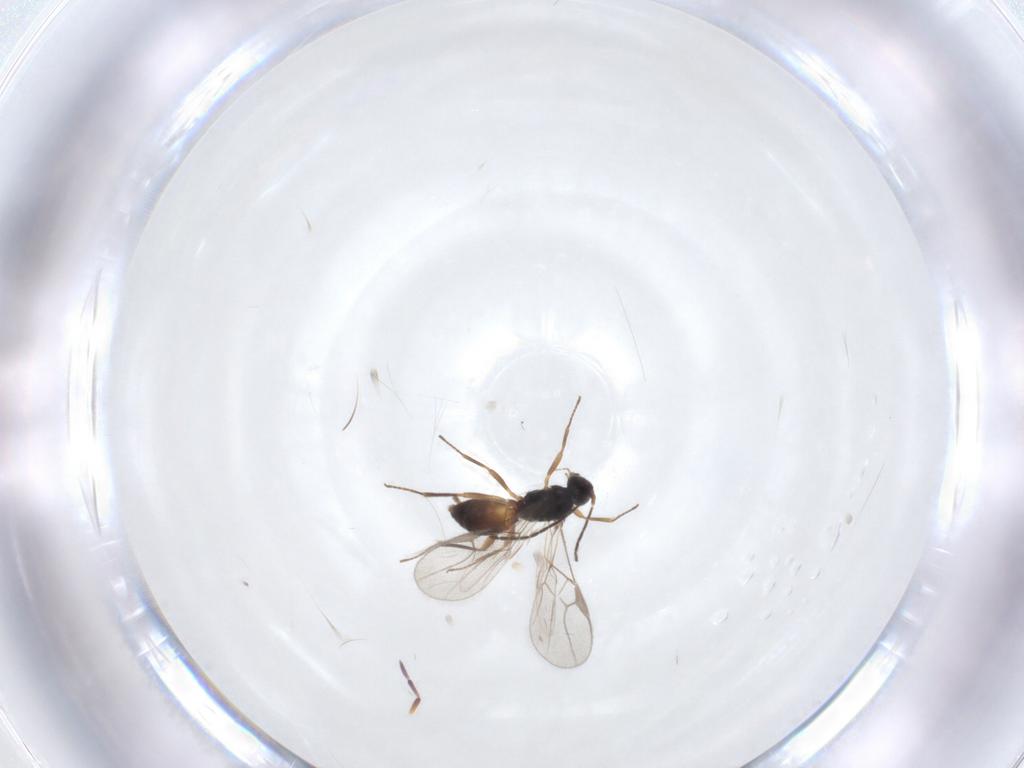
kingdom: Animalia
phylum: Arthropoda
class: Insecta
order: Hymenoptera
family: Braconidae
